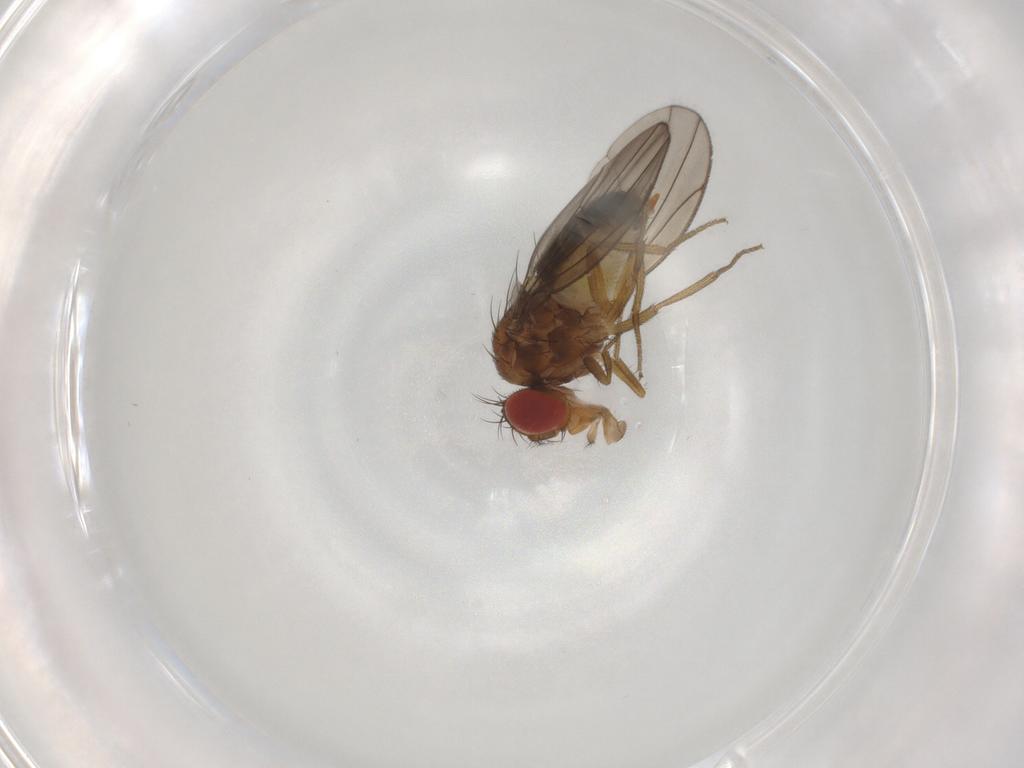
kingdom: Animalia
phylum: Arthropoda
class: Insecta
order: Diptera
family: Drosophilidae
